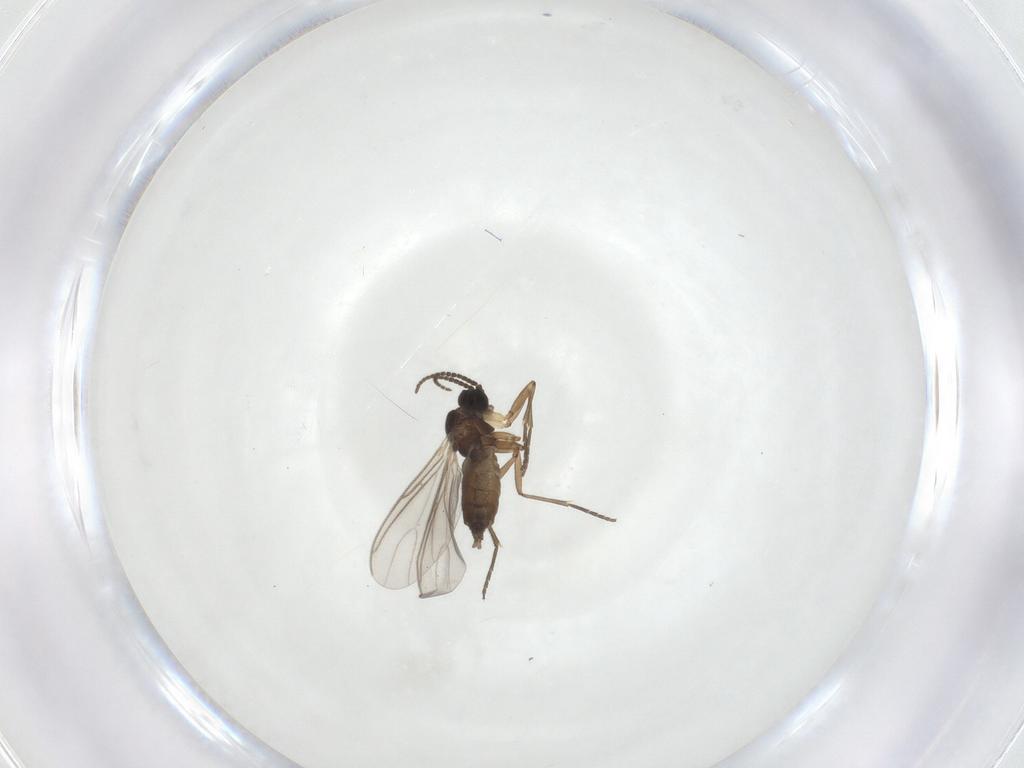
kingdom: Animalia
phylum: Arthropoda
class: Insecta
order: Diptera
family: Sciaridae
